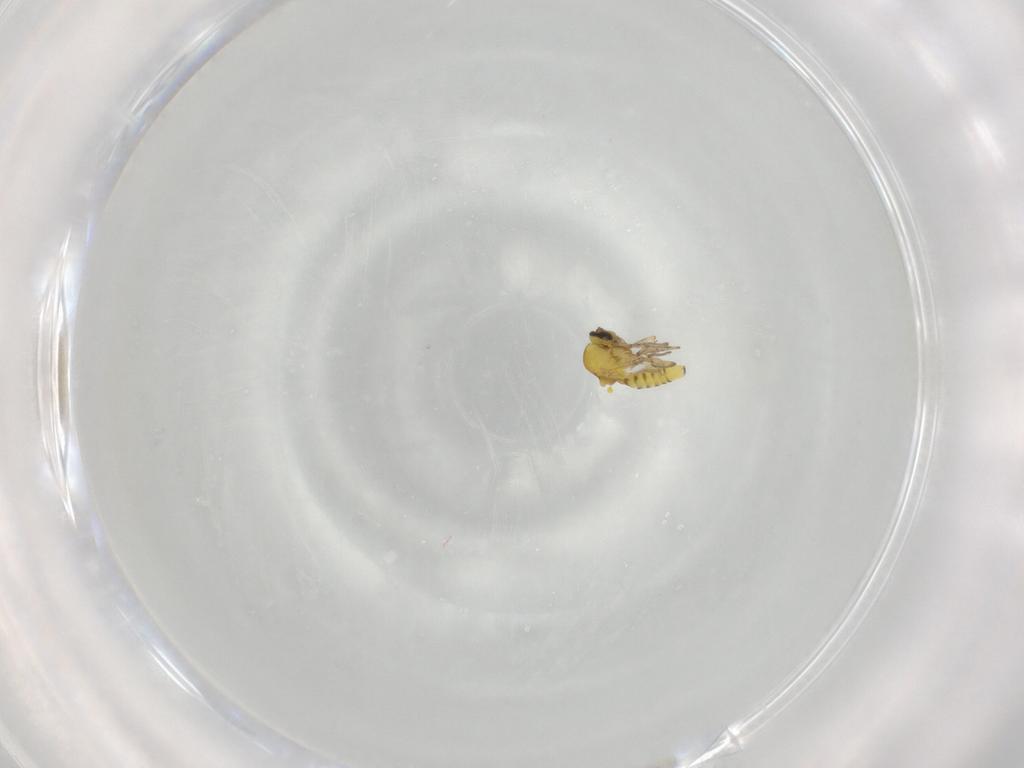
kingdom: Animalia
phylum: Arthropoda
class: Insecta
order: Diptera
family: Ceratopogonidae
